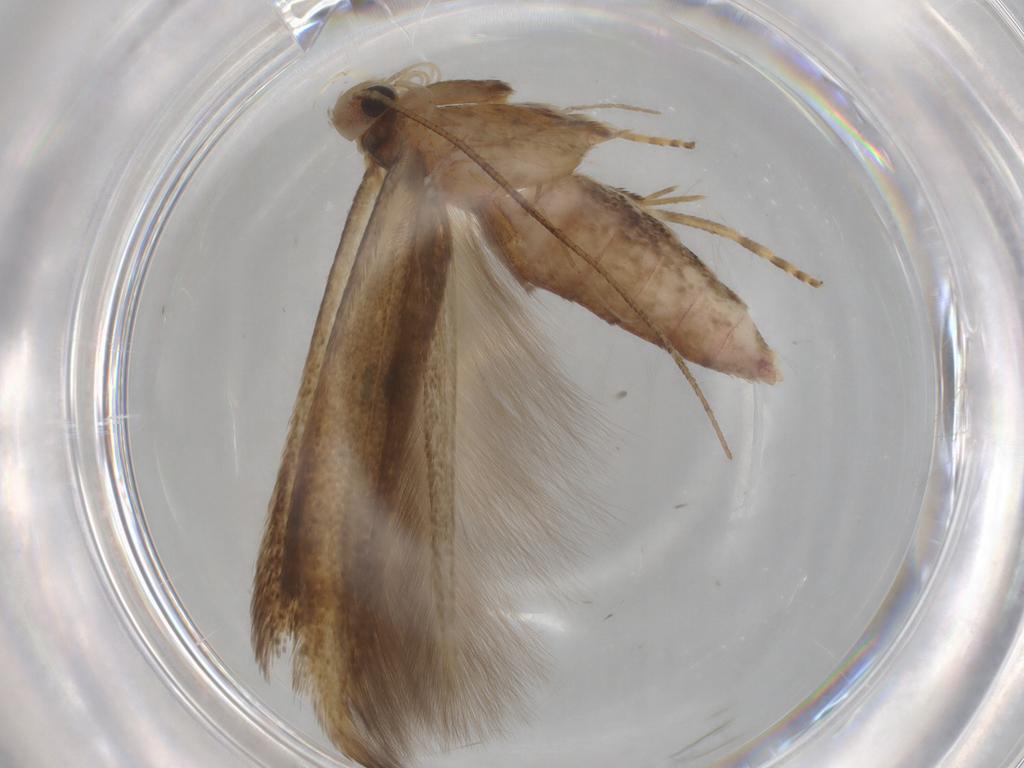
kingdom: Animalia
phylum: Arthropoda
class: Insecta
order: Lepidoptera
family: Batrachedridae
